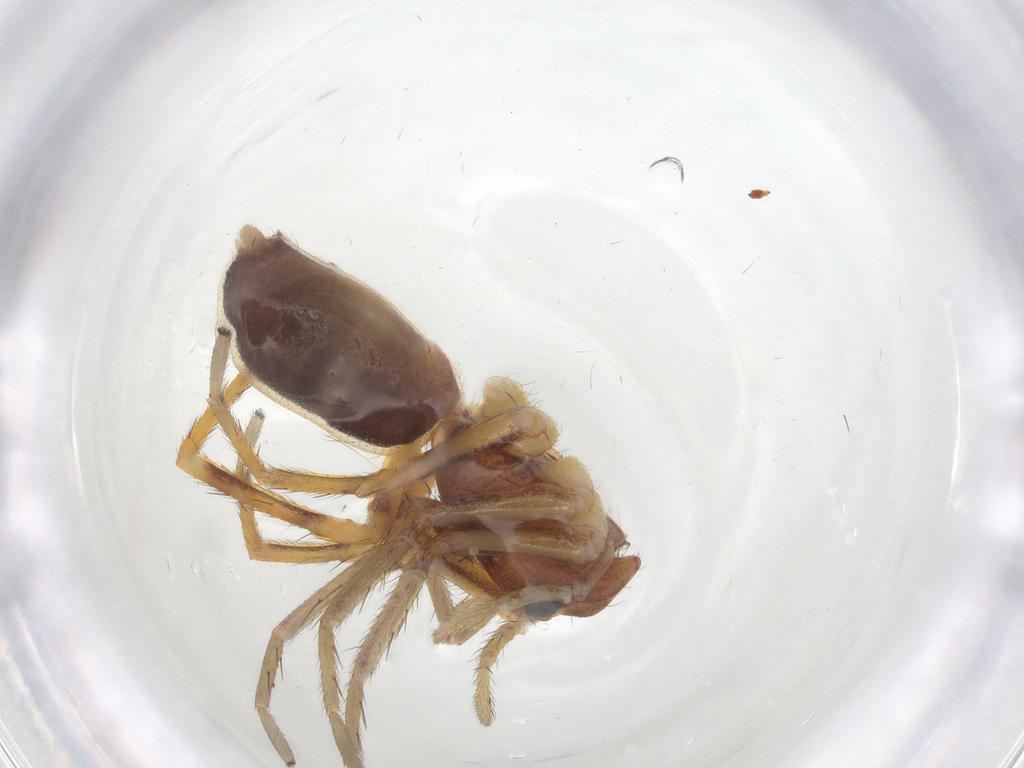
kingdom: Animalia
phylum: Arthropoda
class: Arachnida
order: Araneae
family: Corinnidae
